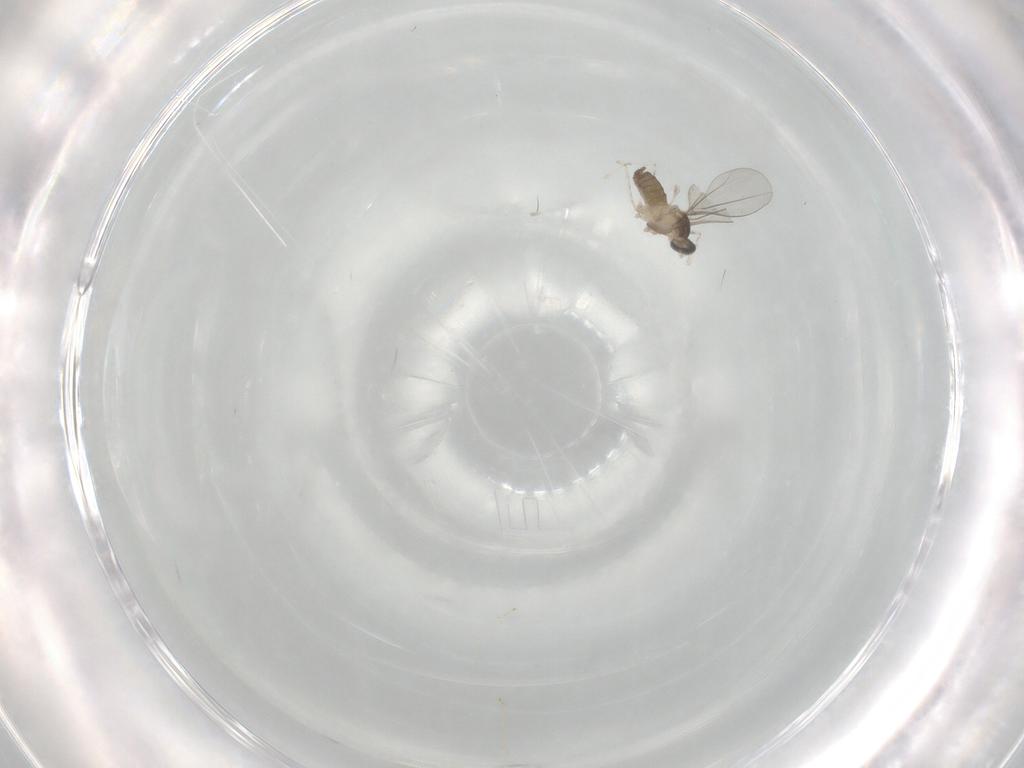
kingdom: Animalia
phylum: Arthropoda
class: Insecta
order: Diptera
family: Cecidomyiidae
